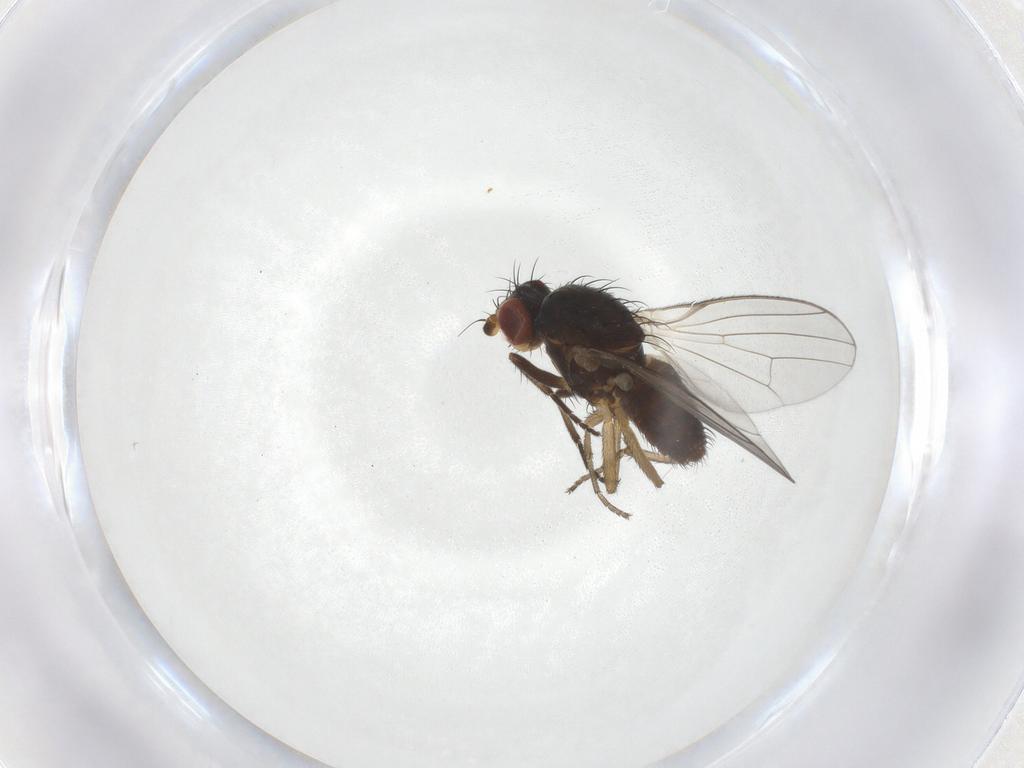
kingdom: Animalia
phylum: Arthropoda
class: Insecta
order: Diptera
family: Heleomyzidae
